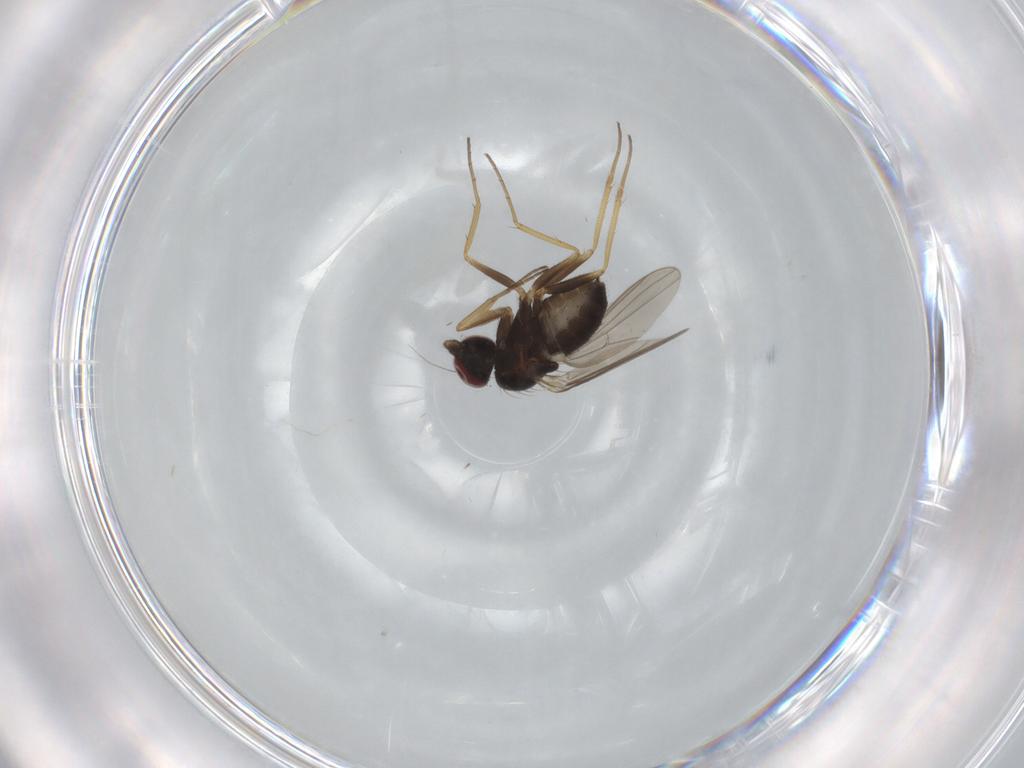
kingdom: Animalia
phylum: Arthropoda
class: Insecta
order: Diptera
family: Dolichopodidae
